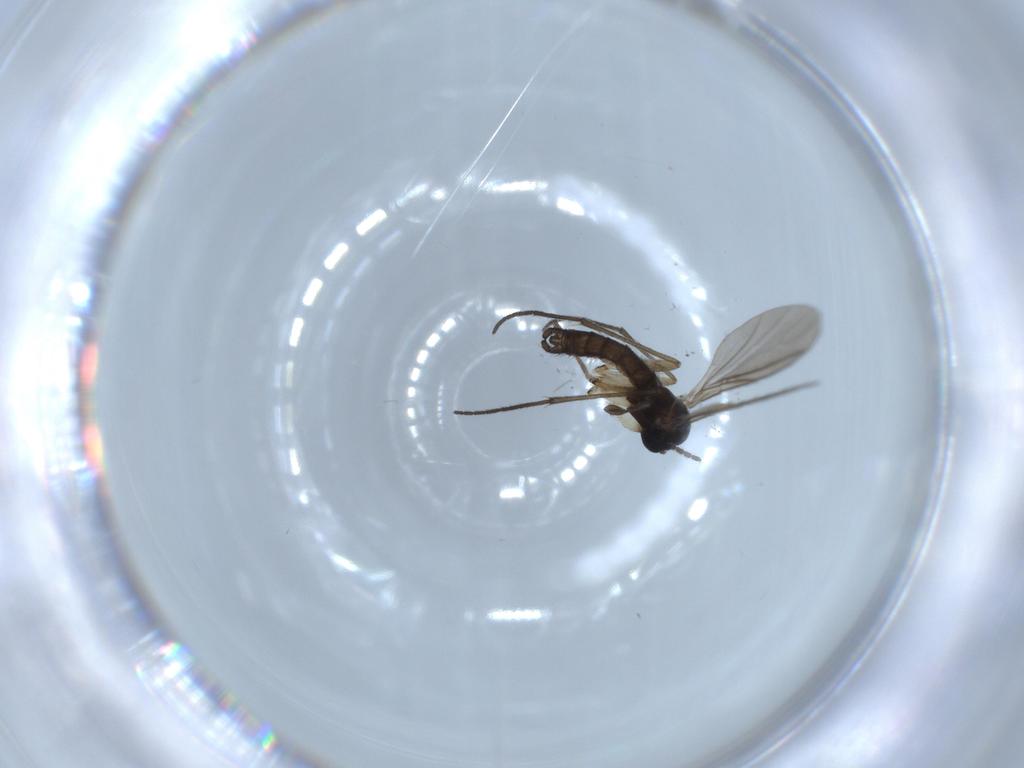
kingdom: Animalia
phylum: Arthropoda
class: Insecta
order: Diptera
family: Sciaridae
